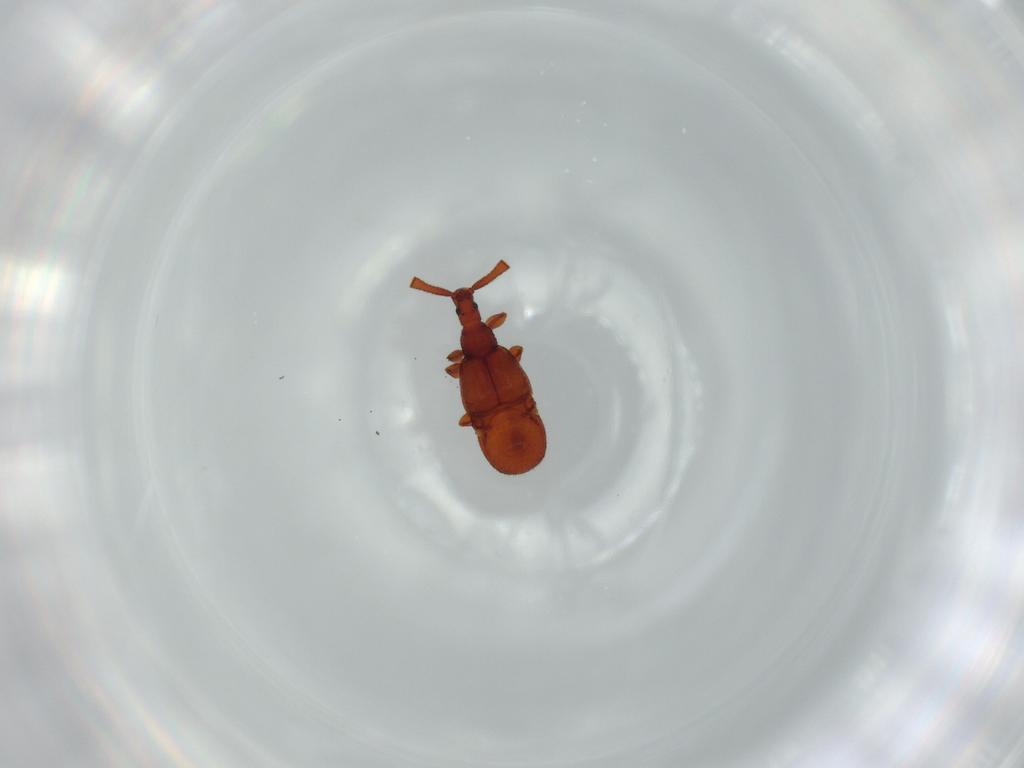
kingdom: Animalia
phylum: Arthropoda
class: Insecta
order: Coleoptera
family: Staphylinidae
